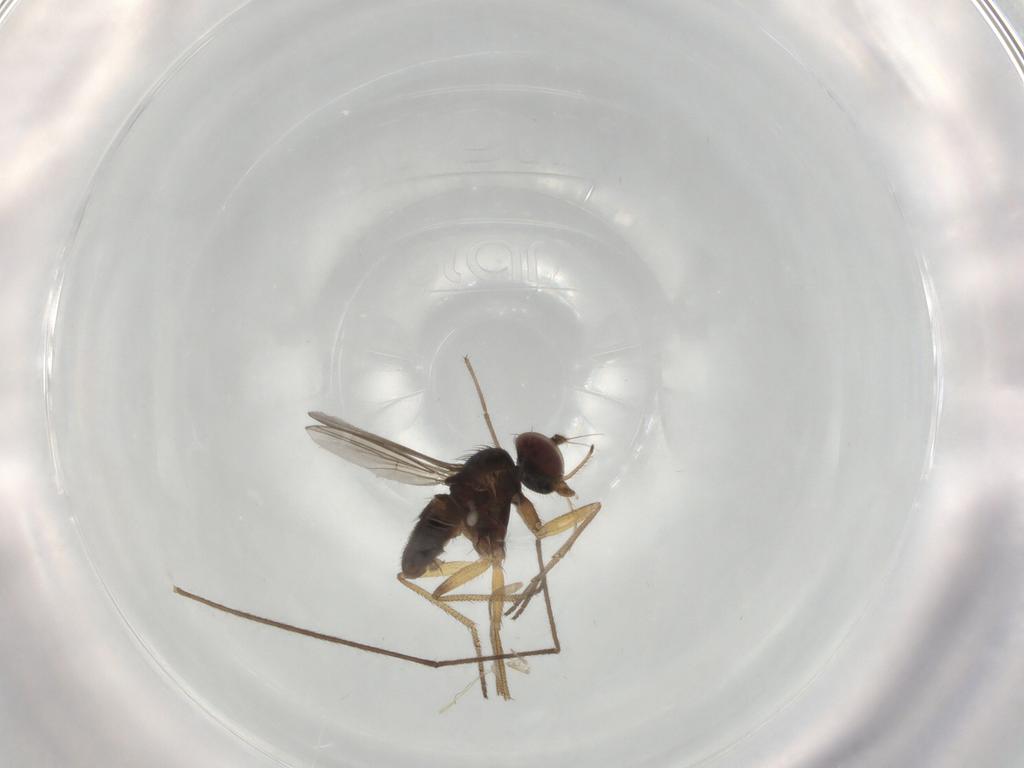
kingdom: Animalia
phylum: Arthropoda
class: Insecta
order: Diptera
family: Dolichopodidae
